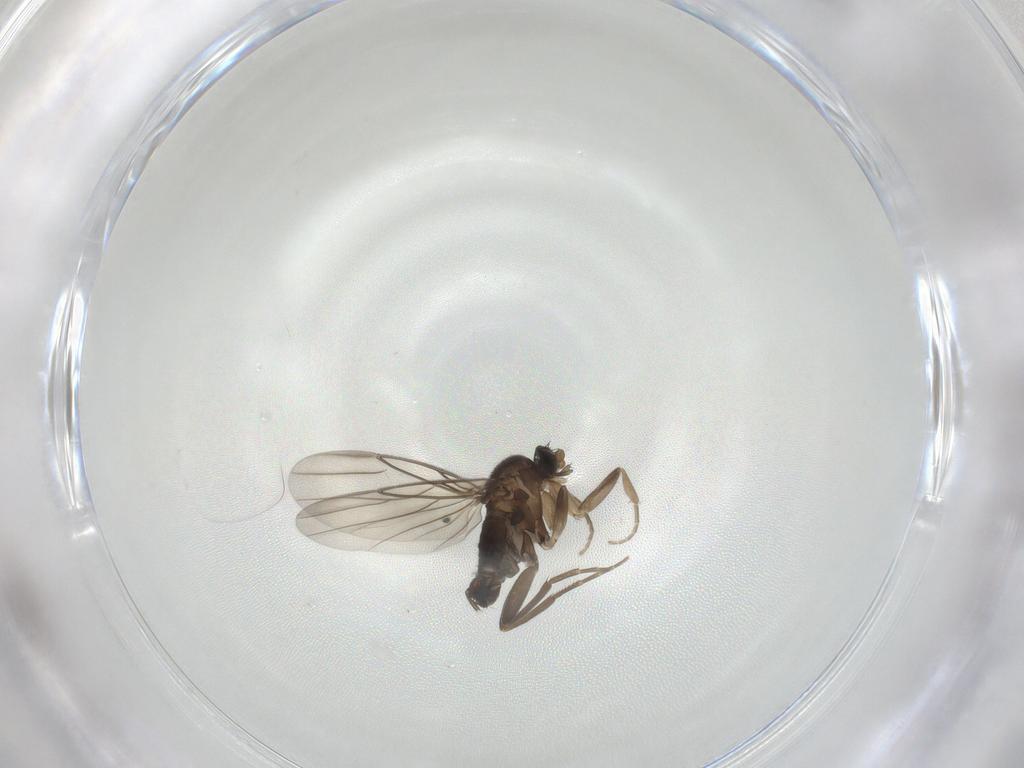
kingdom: Animalia
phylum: Arthropoda
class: Insecta
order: Diptera
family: Sciaridae
